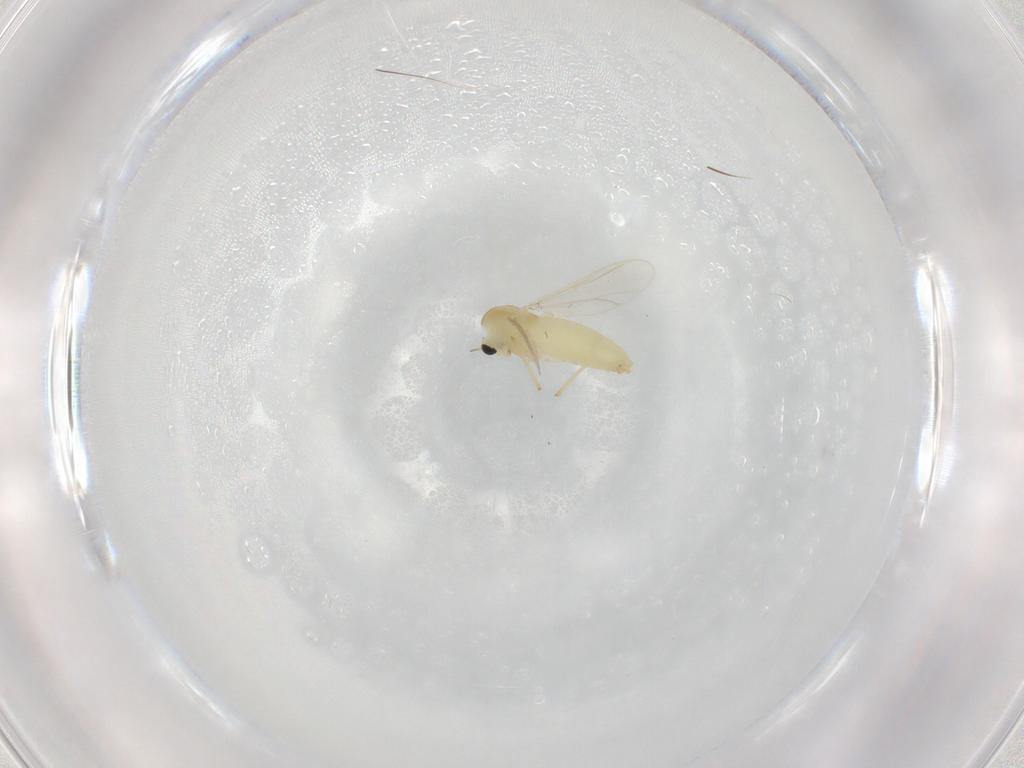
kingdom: Animalia
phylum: Arthropoda
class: Insecta
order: Diptera
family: Chironomidae
